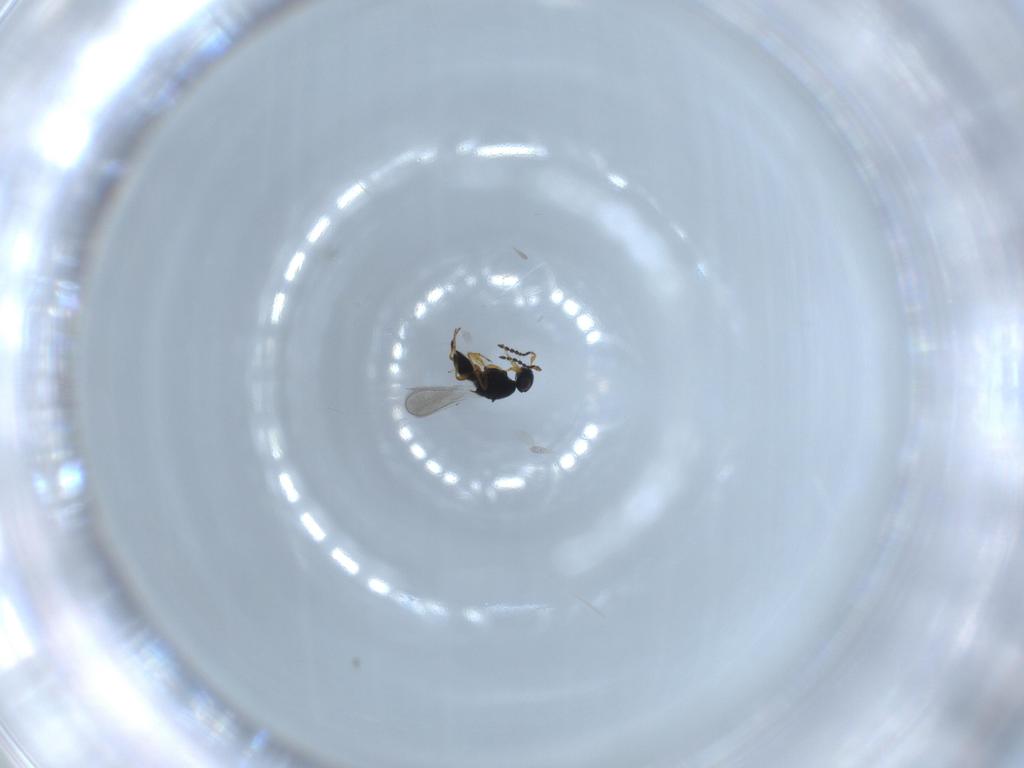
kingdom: Animalia
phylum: Arthropoda
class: Insecta
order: Hymenoptera
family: Platygastridae
